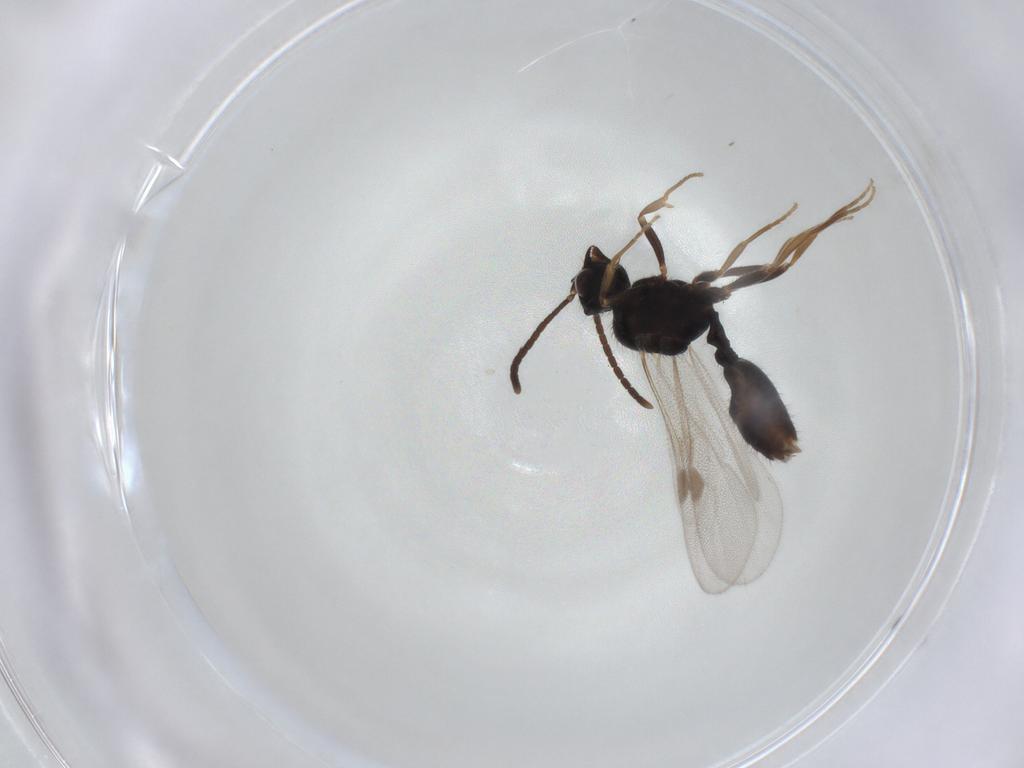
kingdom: Animalia
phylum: Arthropoda
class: Insecta
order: Hymenoptera
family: Formicidae
